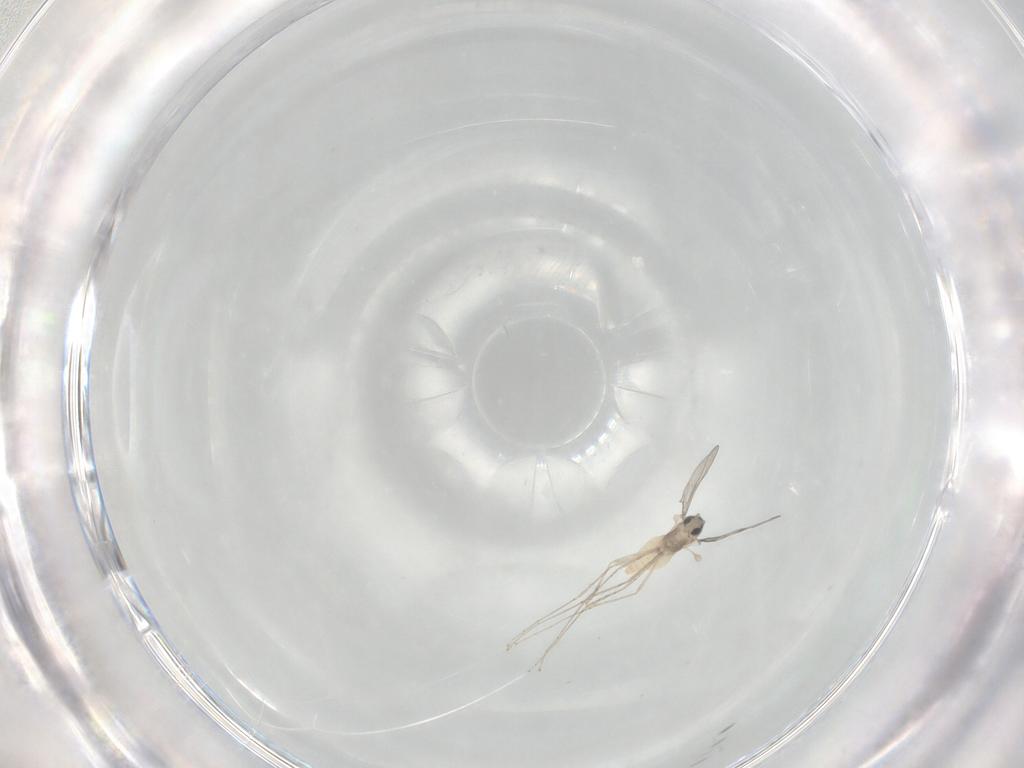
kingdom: Animalia
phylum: Arthropoda
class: Insecta
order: Diptera
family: Cecidomyiidae
